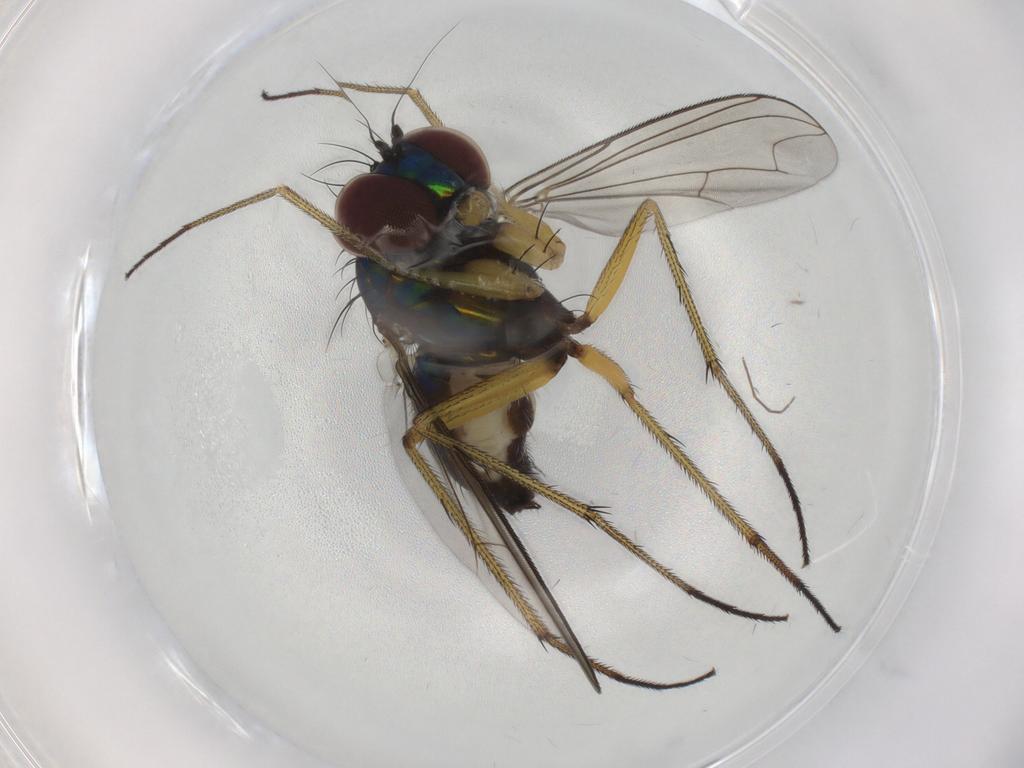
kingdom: Animalia
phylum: Arthropoda
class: Insecta
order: Diptera
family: Dolichopodidae
